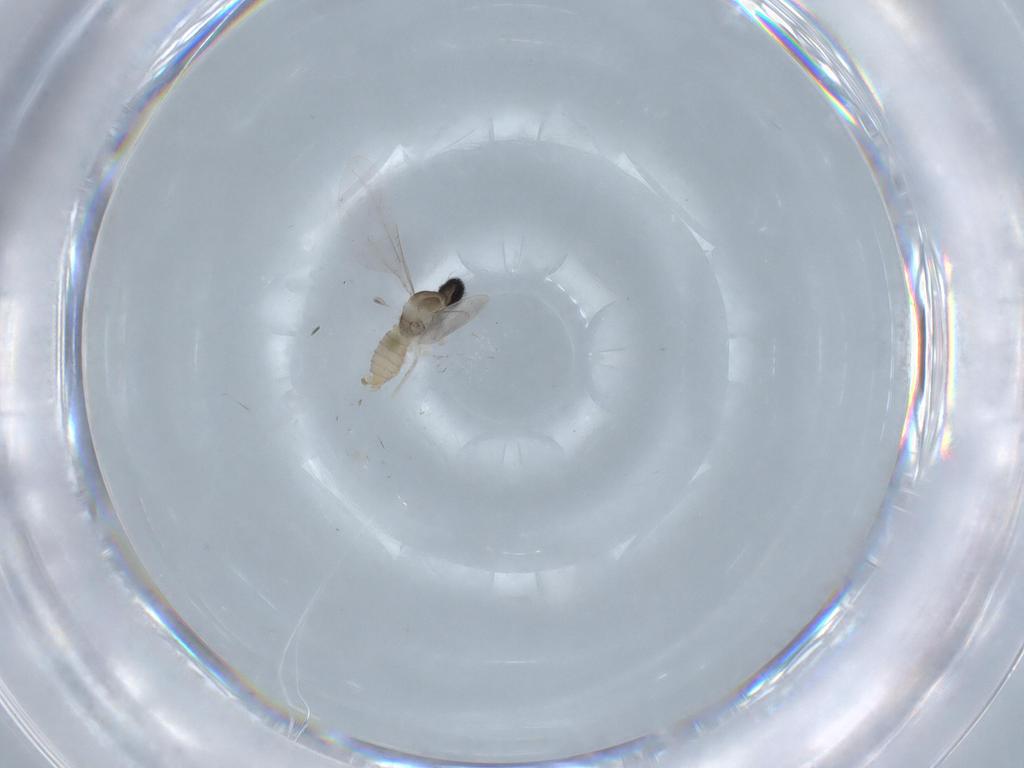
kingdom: Animalia
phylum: Arthropoda
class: Insecta
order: Diptera
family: Cecidomyiidae
